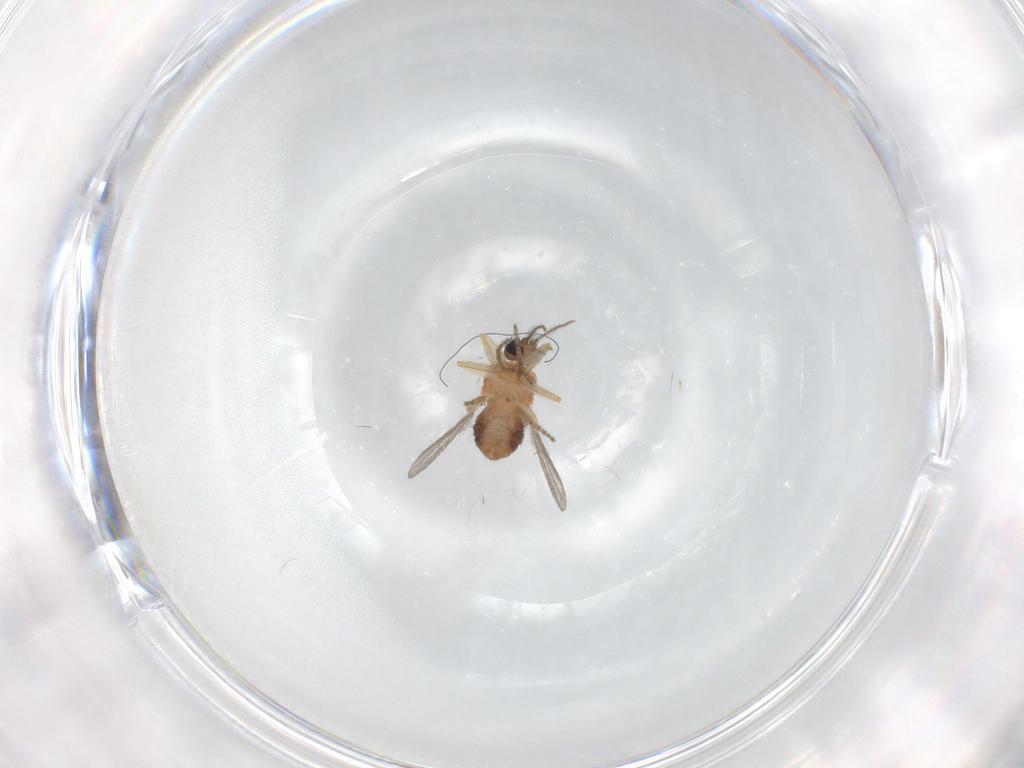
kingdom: Animalia
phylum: Arthropoda
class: Insecta
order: Diptera
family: Ceratopogonidae
